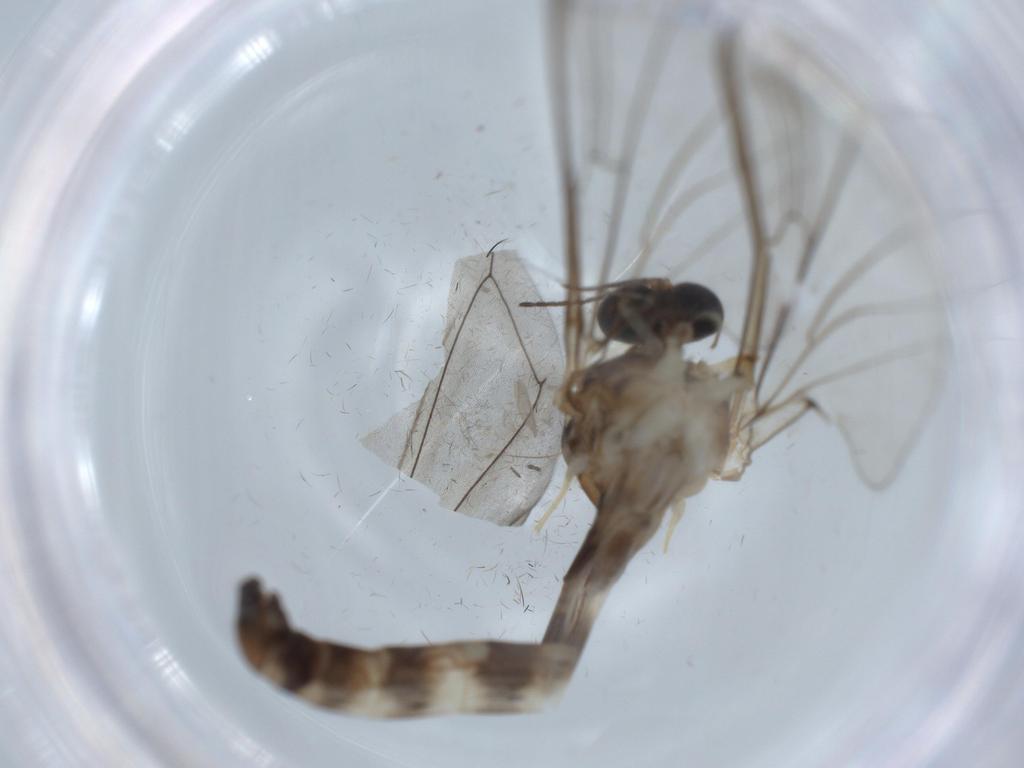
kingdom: Animalia
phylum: Arthropoda
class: Insecta
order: Diptera
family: Blephariceridae
